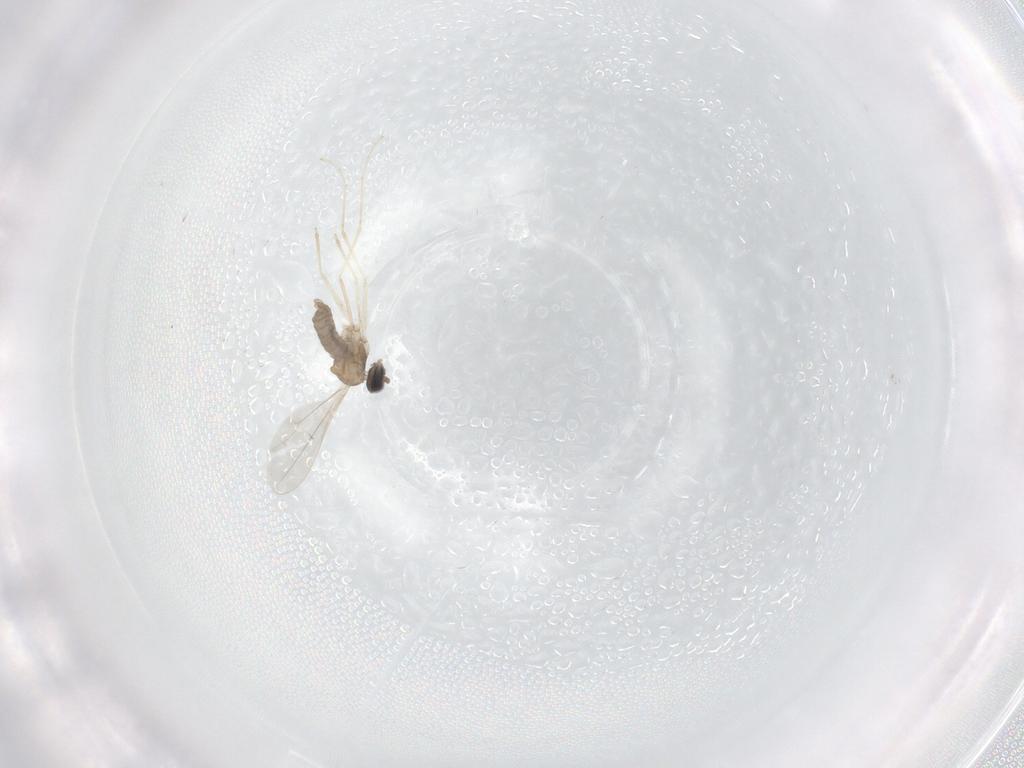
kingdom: Animalia
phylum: Arthropoda
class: Insecta
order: Diptera
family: Cecidomyiidae
